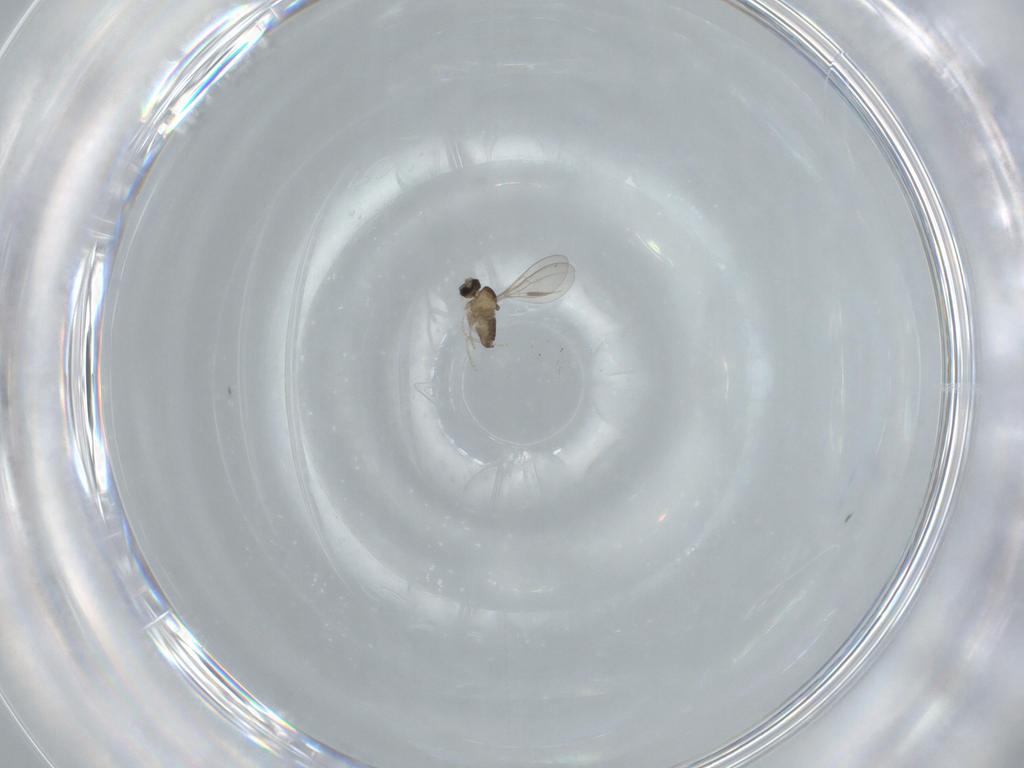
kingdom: Animalia
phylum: Arthropoda
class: Insecta
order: Diptera
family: Cecidomyiidae
